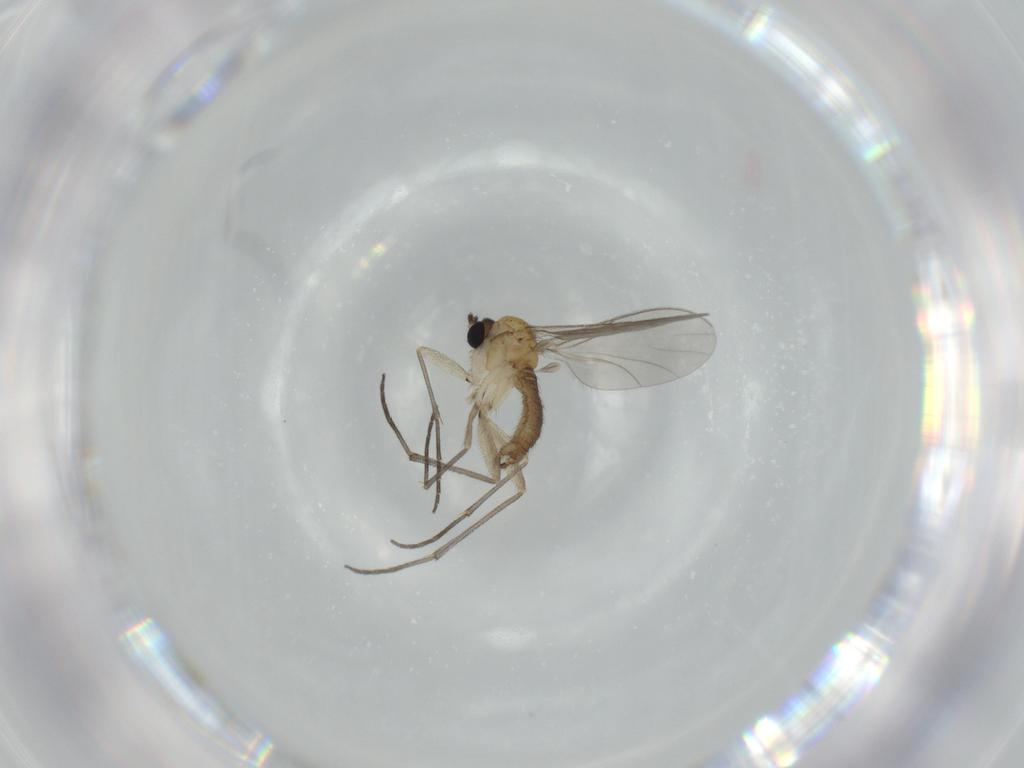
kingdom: Animalia
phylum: Arthropoda
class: Insecta
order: Diptera
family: Sciaridae
